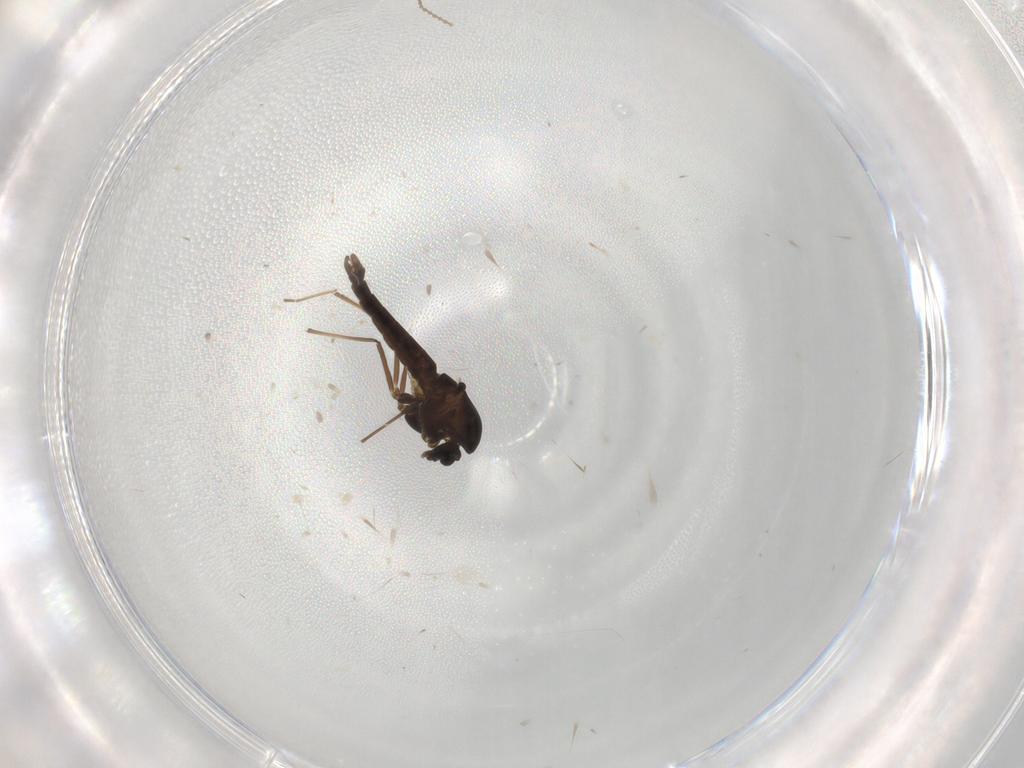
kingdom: Animalia
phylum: Arthropoda
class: Insecta
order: Diptera
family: Chironomidae
